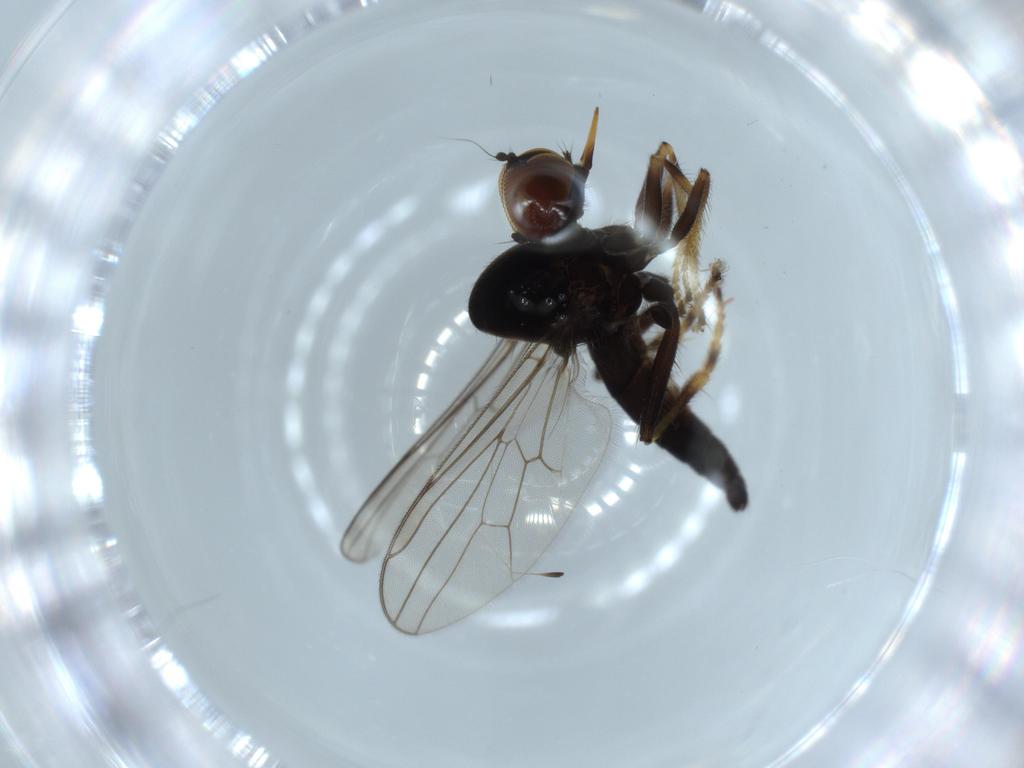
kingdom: Animalia
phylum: Arthropoda
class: Insecta
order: Diptera
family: Hybotidae
